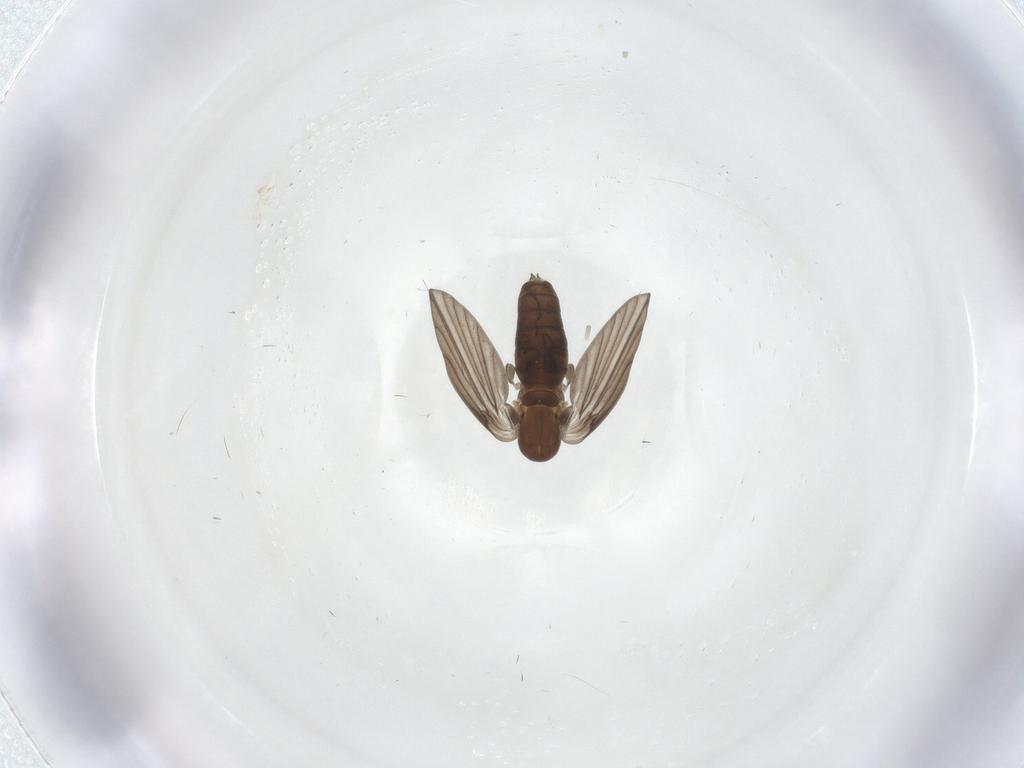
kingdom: Animalia
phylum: Arthropoda
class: Insecta
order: Diptera
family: Psychodidae
